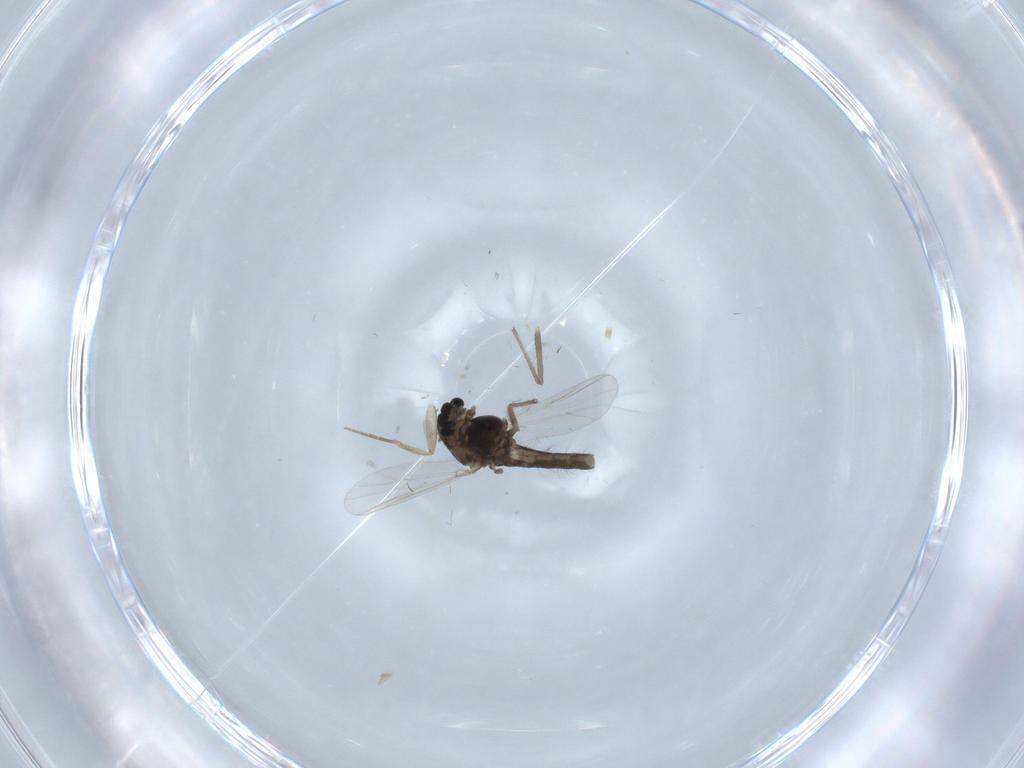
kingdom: Animalia
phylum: Arthropoda
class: Insecta
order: Diptera
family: Chironomidae
